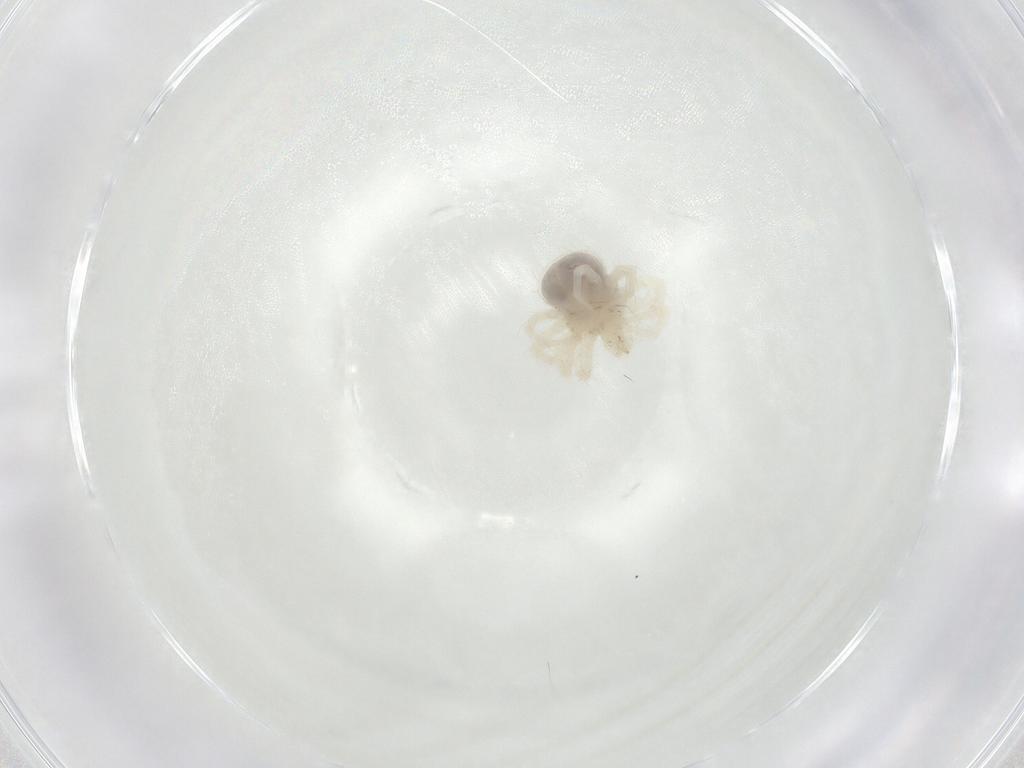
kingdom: Animalia
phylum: Arthropoda
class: Arachnida
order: Trombidiformes
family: Anystidae
